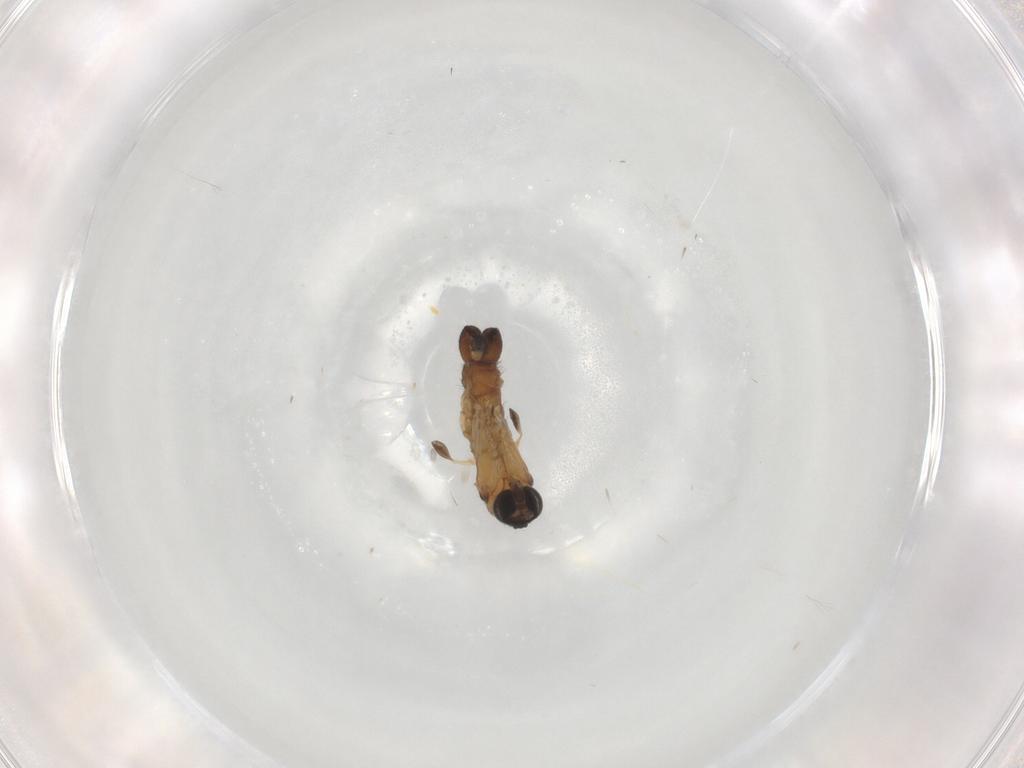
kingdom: Animalia
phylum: Arthropoda
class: Insecta
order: Diptera
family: Sciaridae
